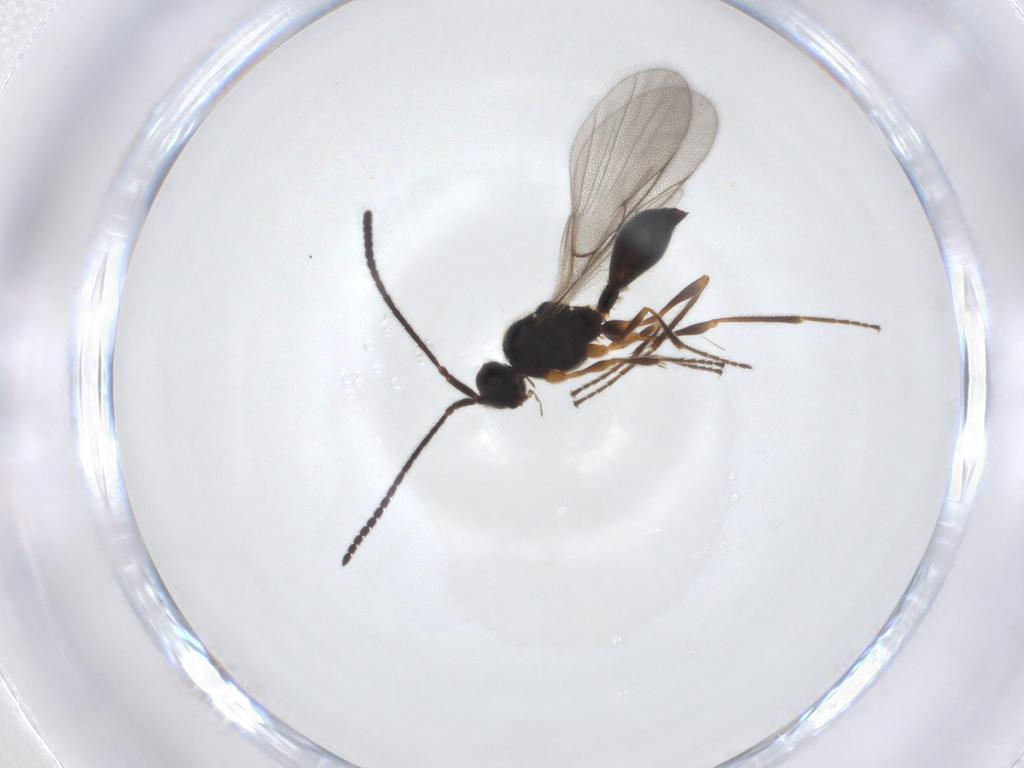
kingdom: Animalia
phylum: Arthropoda
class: Insecta
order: Hymenoptera
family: Diapriidae
